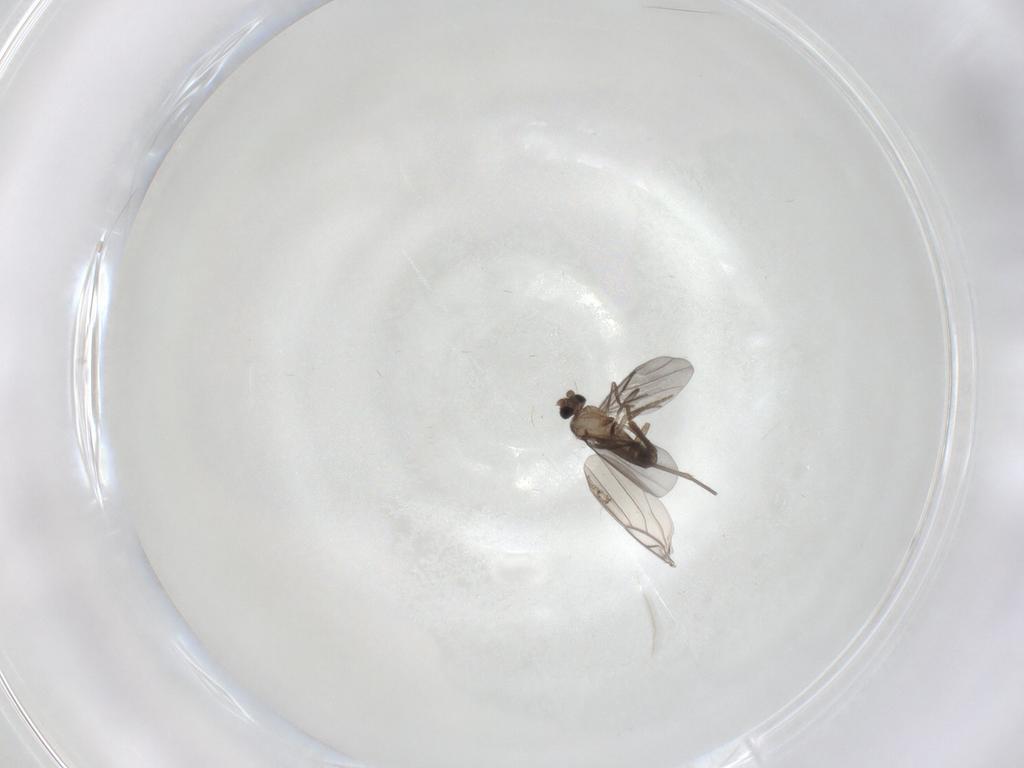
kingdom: Animalia
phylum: Arthropoda
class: Insecta
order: Diptera
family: Phoridae
